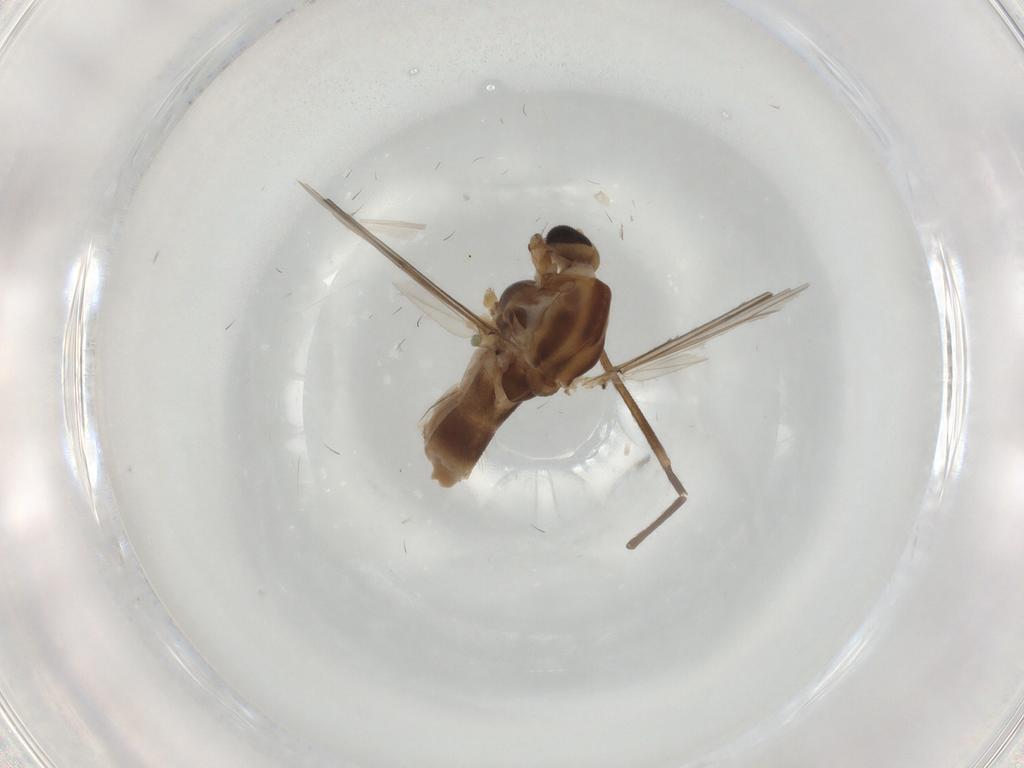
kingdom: Animalia
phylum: Arthropoda
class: Insecta
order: Diptera
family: Chironomidae
